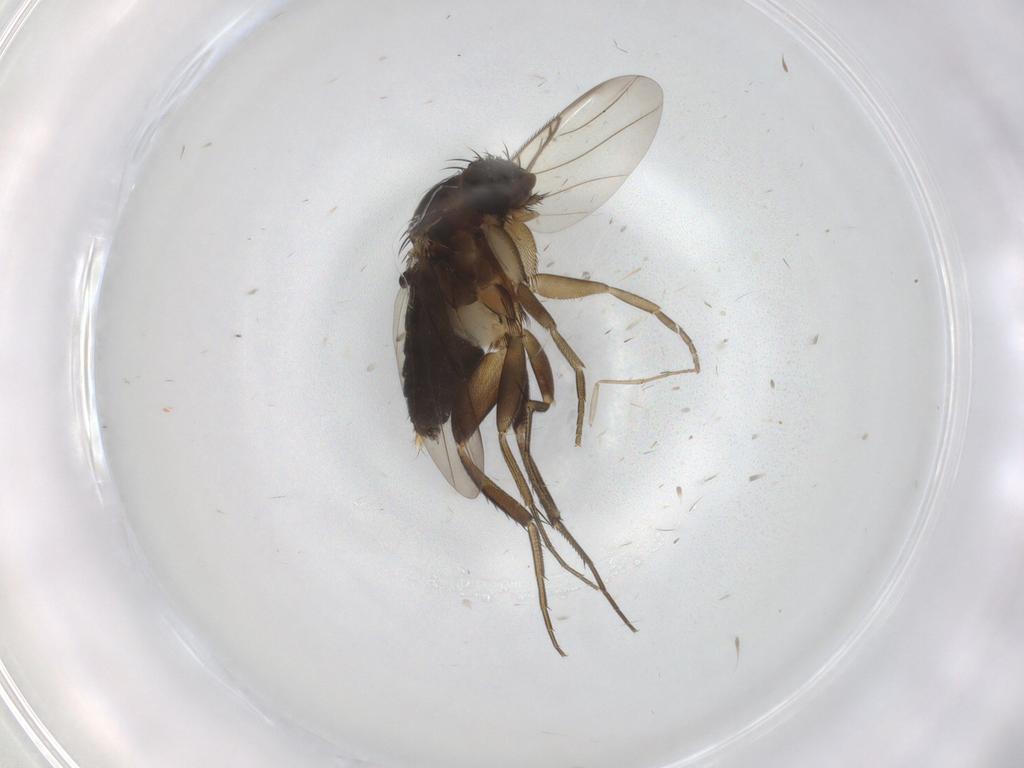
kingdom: Animalia
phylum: Arthropoda
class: Insecta
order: Diptera
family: Phoridae
